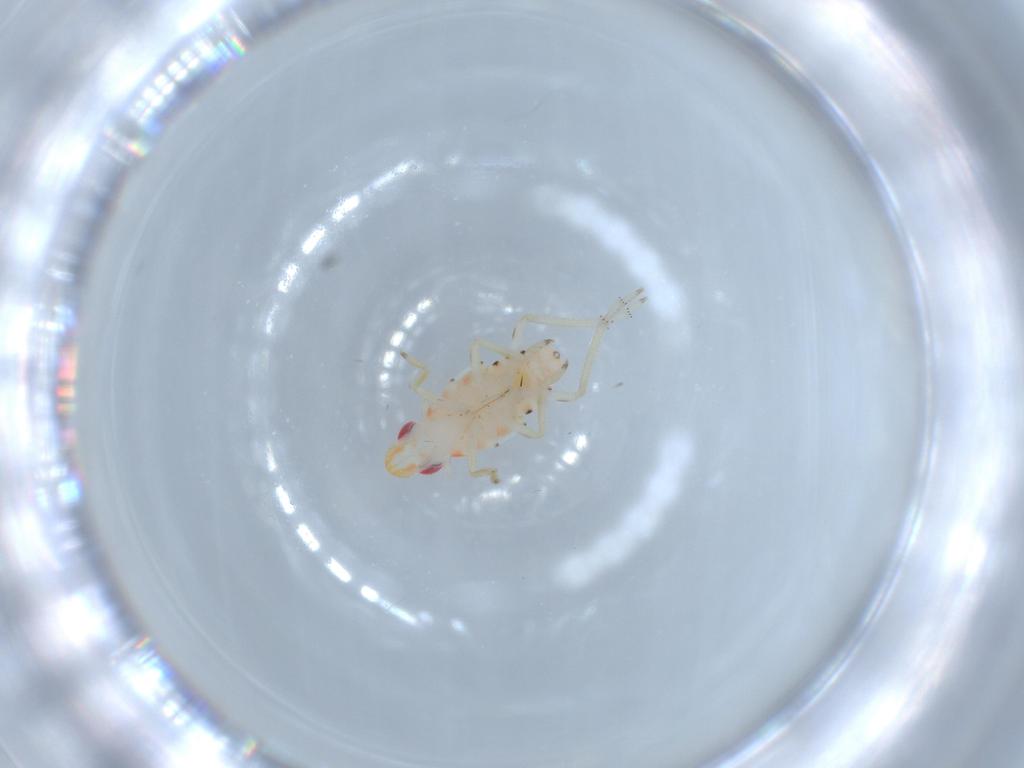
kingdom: Animalia
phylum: Arthropoda
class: Insecta
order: Hemiptera
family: Tropiduchidae
